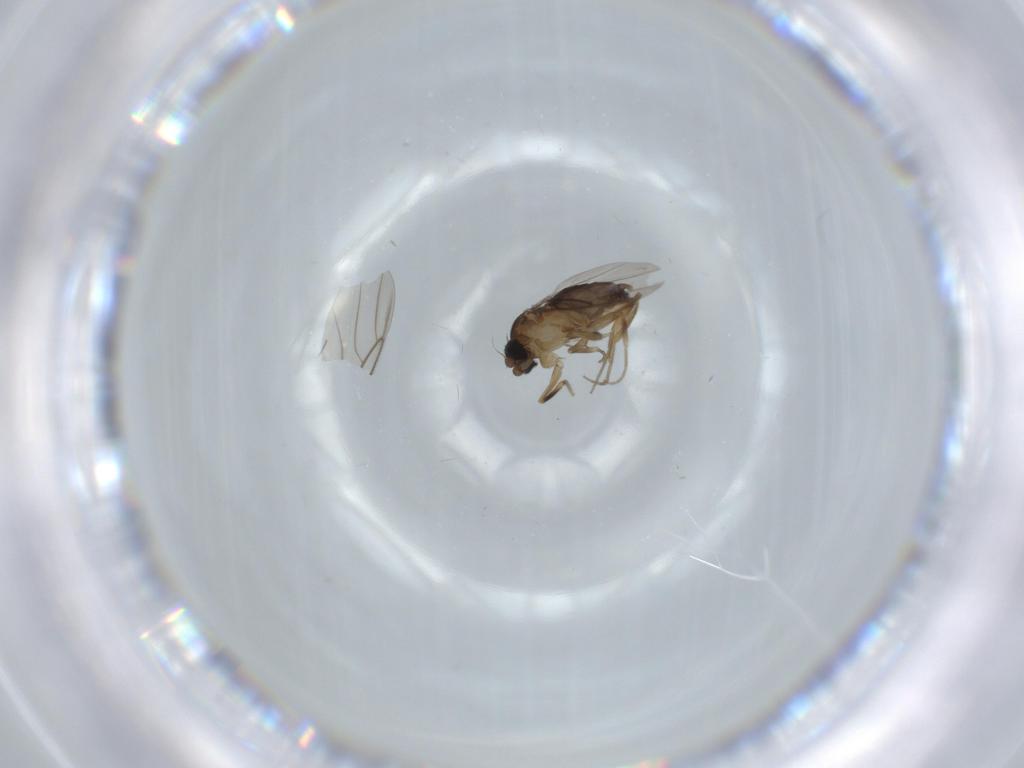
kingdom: Animalia
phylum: Arthropoda
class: Insecta
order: Diptera
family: Phoridae
